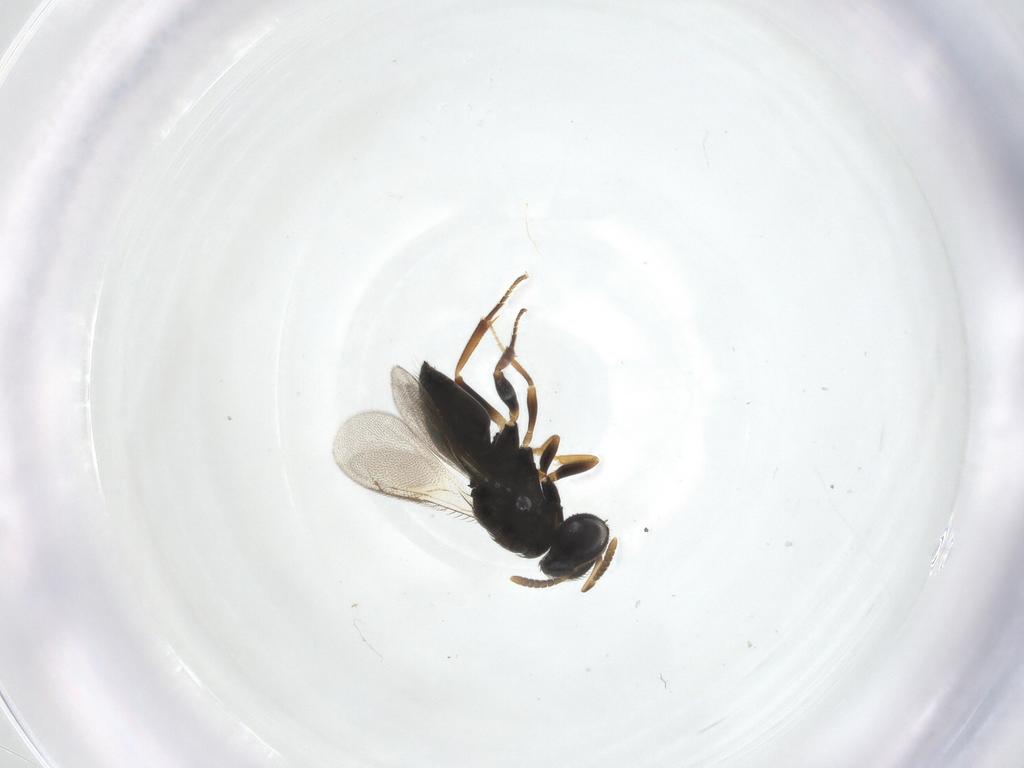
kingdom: Animalia
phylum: Arthropoda
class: Insecta
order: Hymenoptera
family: Pteromalidae
